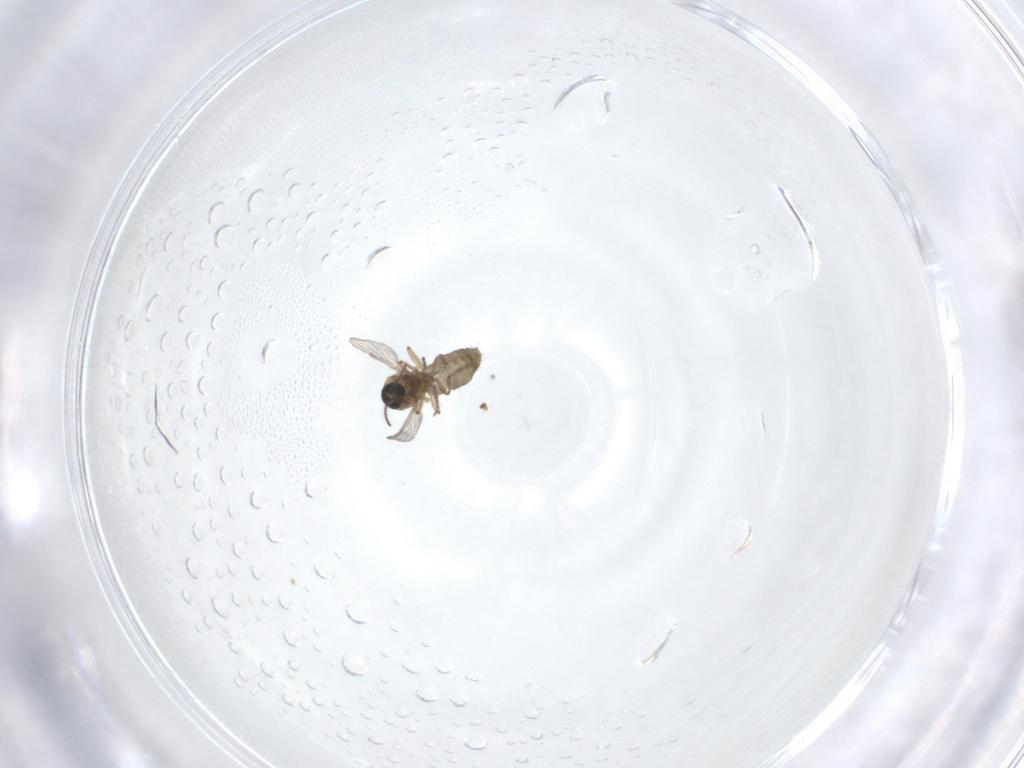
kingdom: Animalia
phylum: Arthropoda
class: Insecta
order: Diptera
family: Ceratopogonidae
